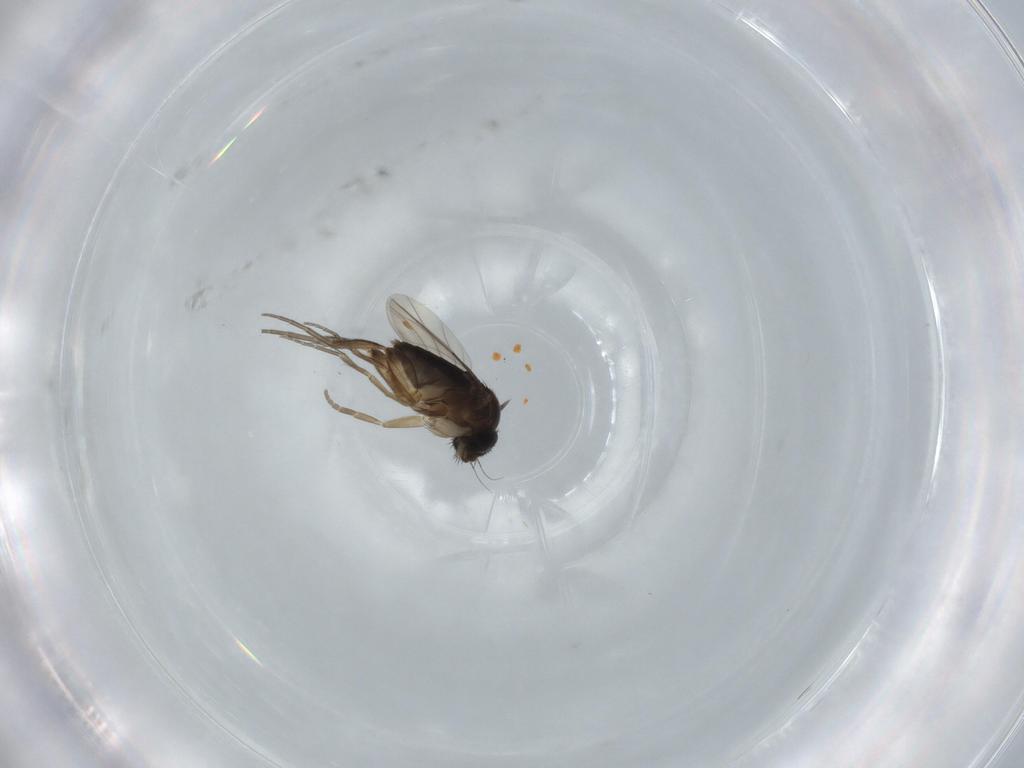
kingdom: Animalia
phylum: Arthropoda
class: Insecta
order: Diptera
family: Phoridae
